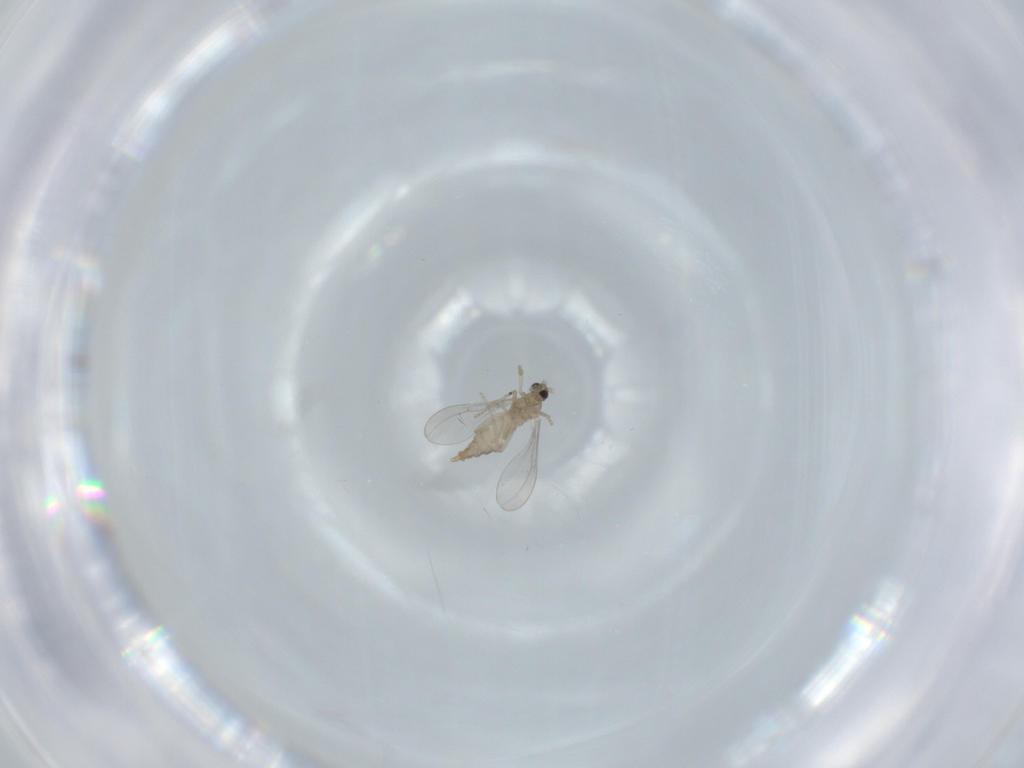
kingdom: Animalia
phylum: Arthropoda
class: Insecta
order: Diptera
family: Cecidomyiidae
